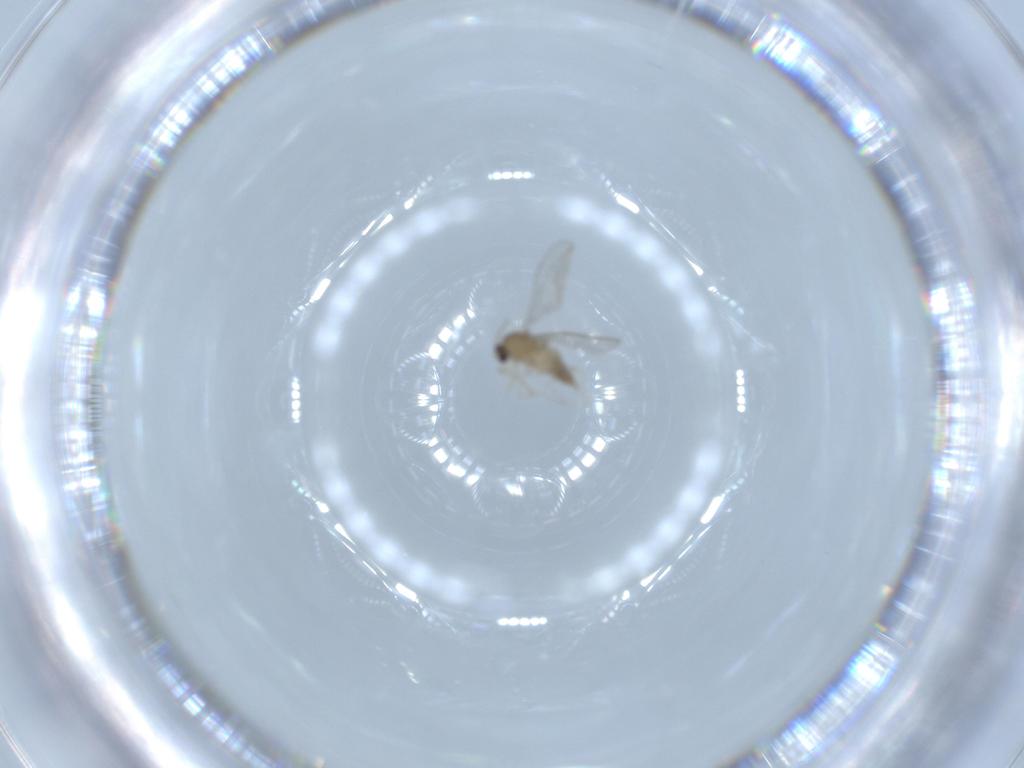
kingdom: Animalia
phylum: Arthropoda
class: Insecta
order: Diptera
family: Cecidomyiidae
